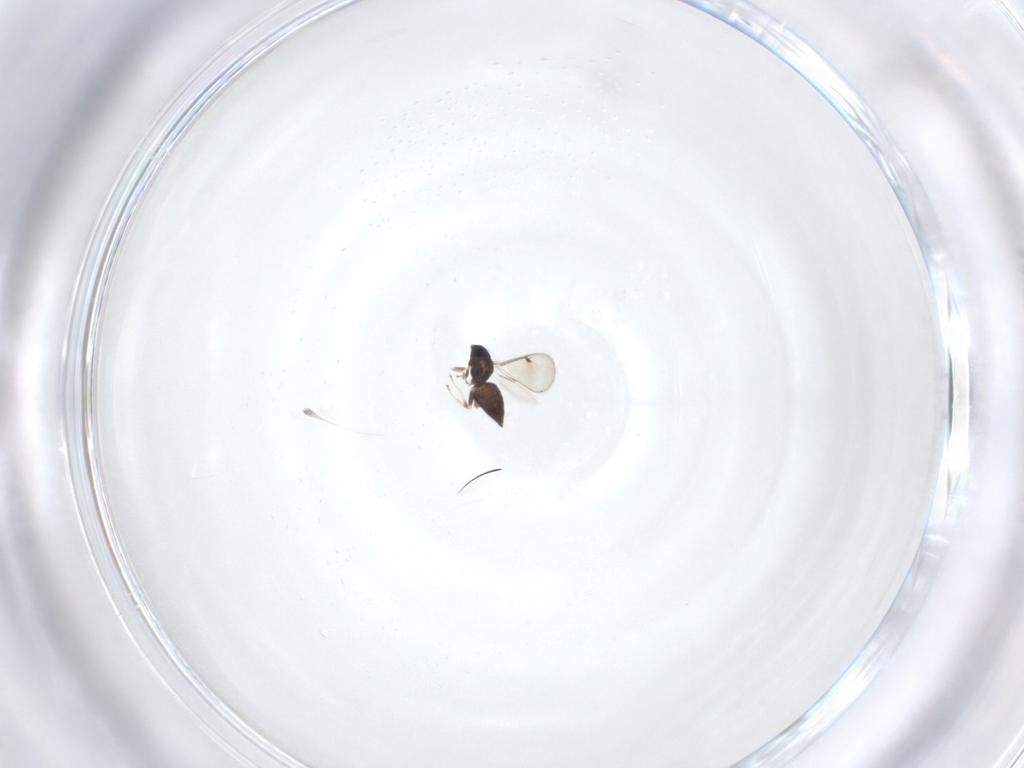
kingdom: Animalia
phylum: Arthropoda
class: Insecta
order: Hymenoptera
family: Eulophidae
